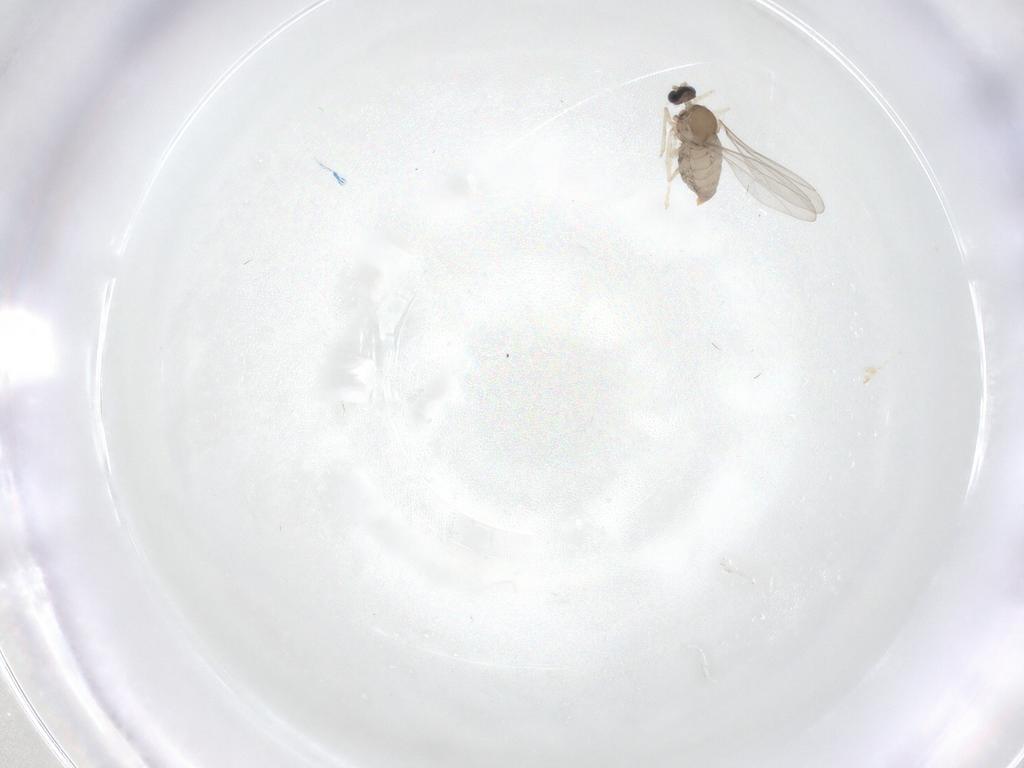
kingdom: Animalia
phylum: Arthropoda
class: Insecta
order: Diptera
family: Cecidomyiidae
